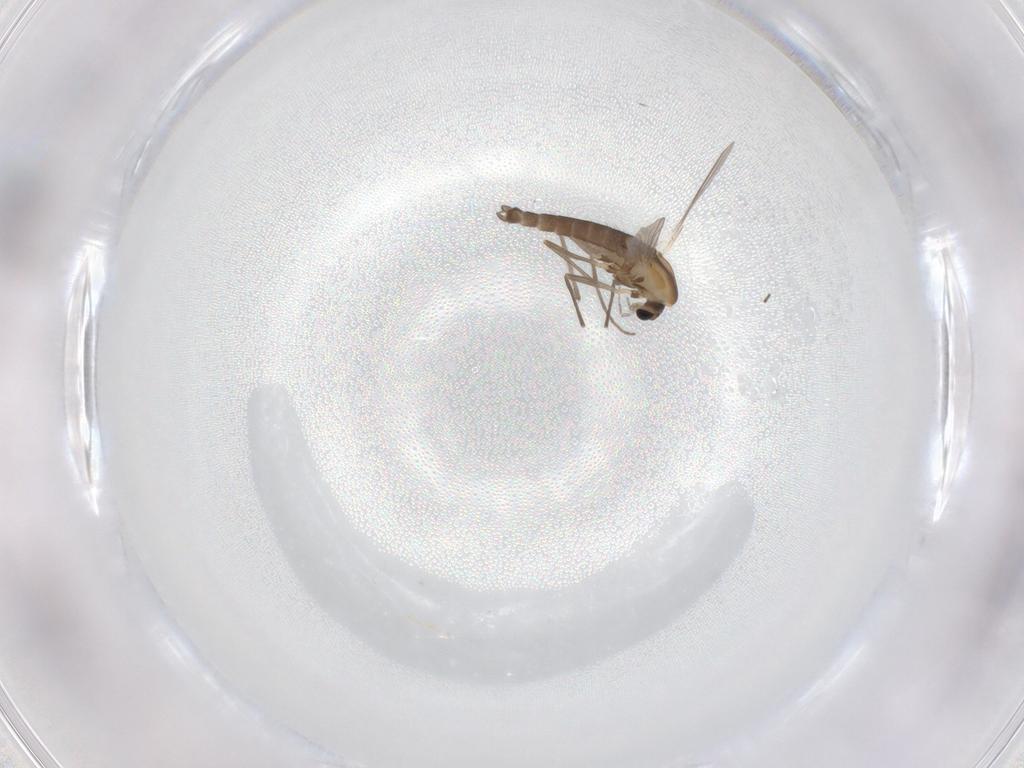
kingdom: Animalia
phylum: Arthropoda
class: Insecta
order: Diptera
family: Chironomidae
